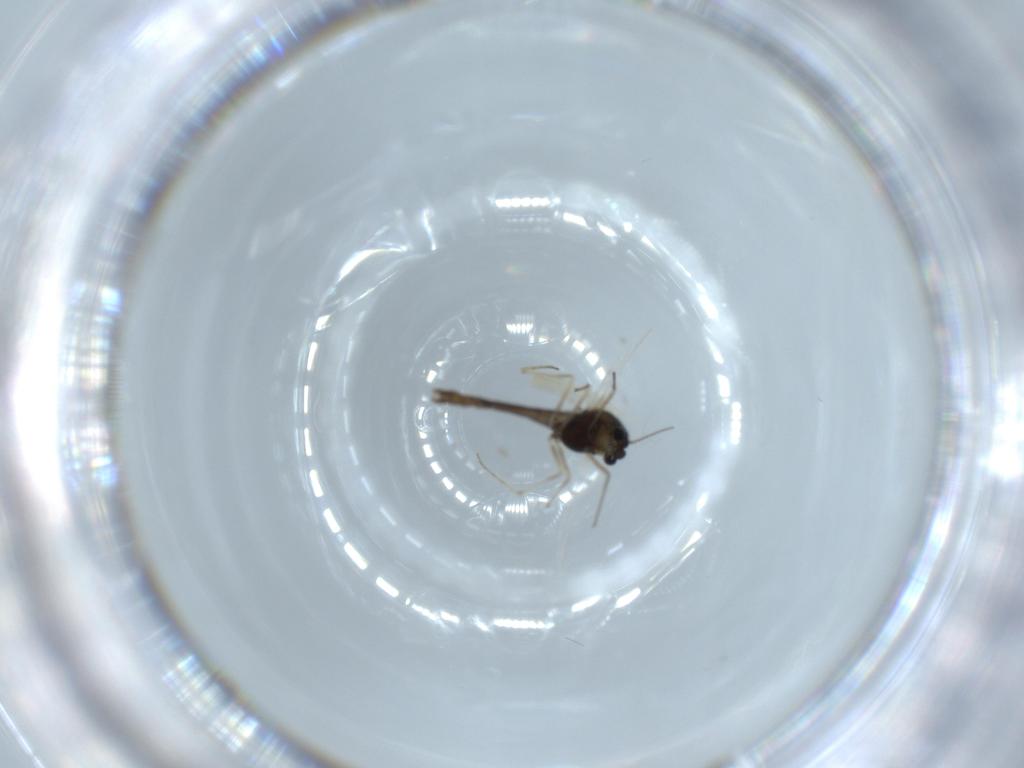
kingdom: Animalia
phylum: Arthropoda
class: Insecta
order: Diptera
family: Chironomidae
